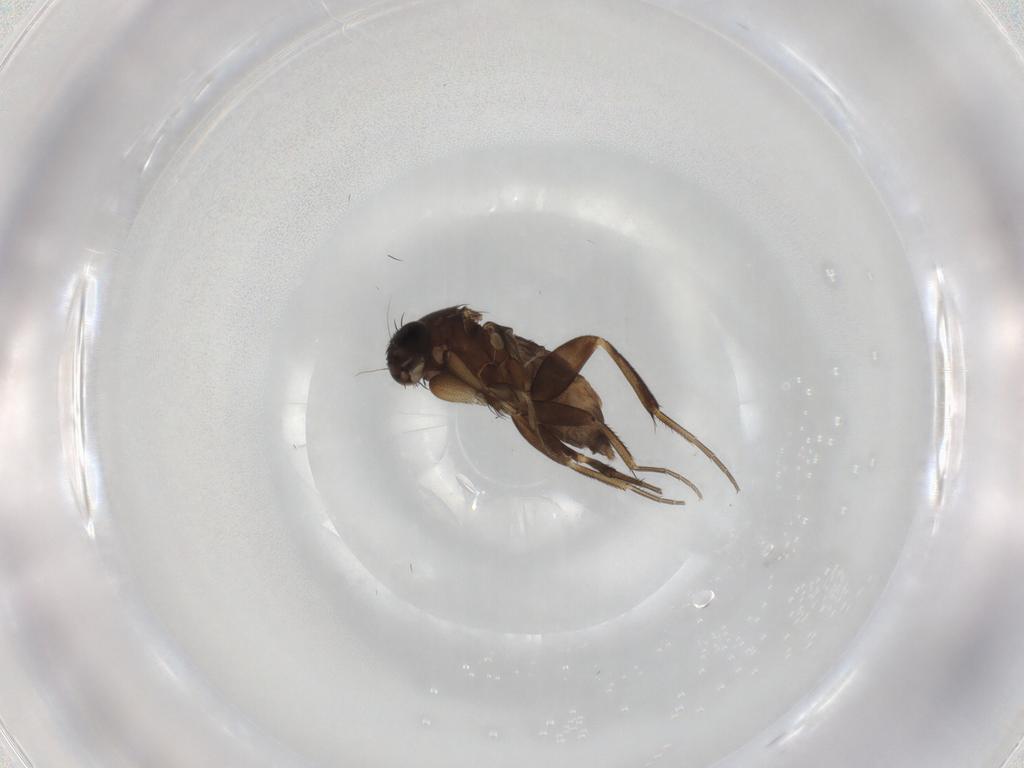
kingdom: Animalia
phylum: Arthropoda
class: Insecta
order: Diptera
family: Phoridae
